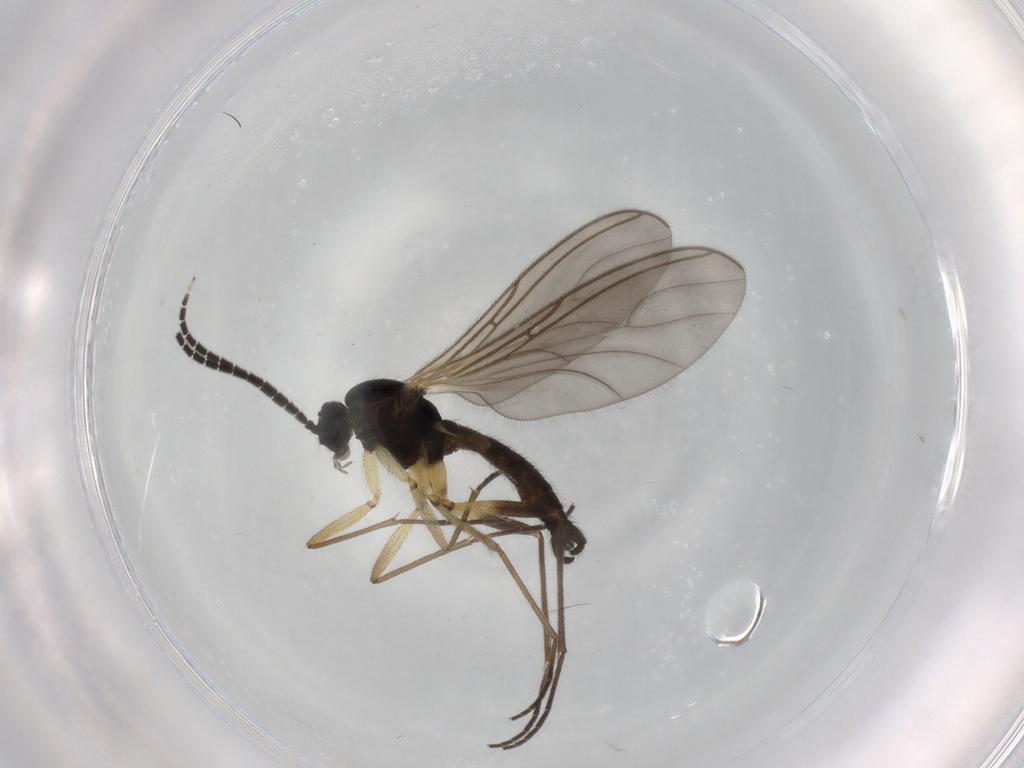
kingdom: Animalia
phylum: Arthropoda
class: Insecta
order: Diptera
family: Sciaridae
